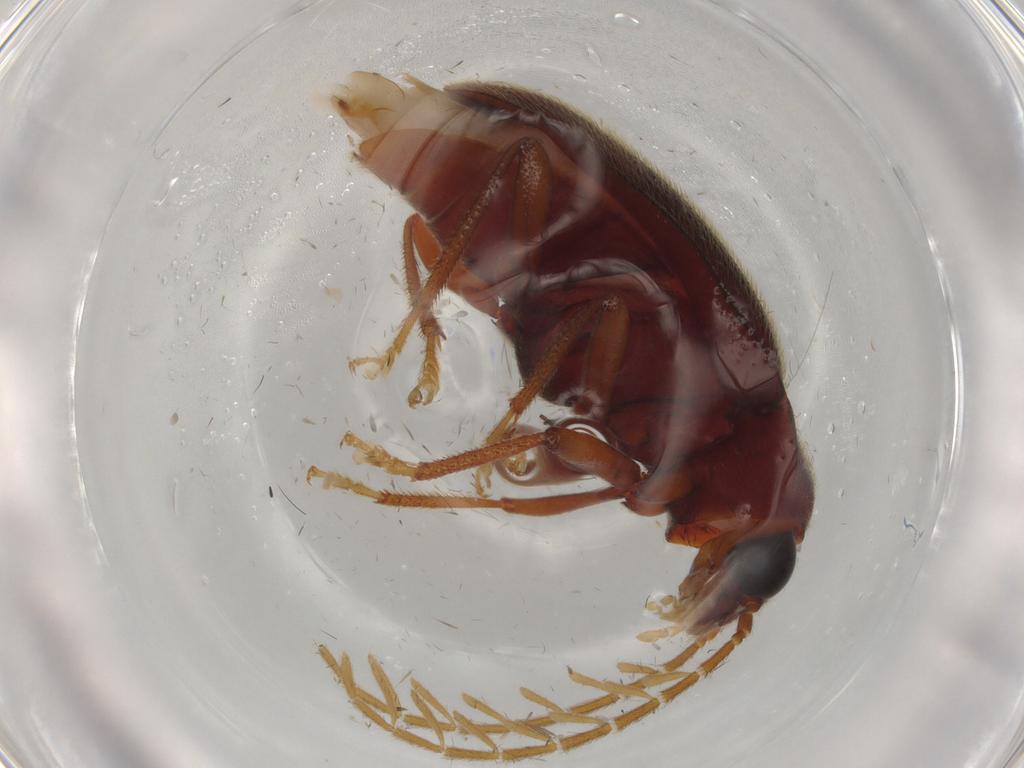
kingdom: Animalia
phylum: Arthropoda
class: Insecta
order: Coleoptera
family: Ptilodactylidae
